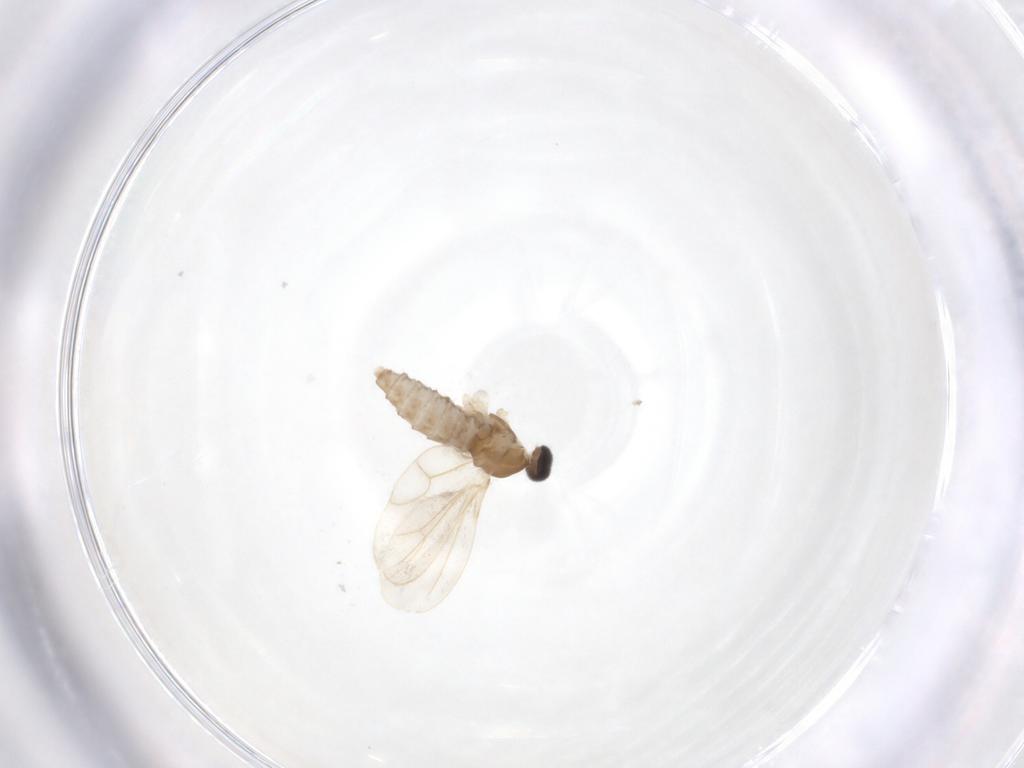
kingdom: Animalia
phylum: Arthropoda
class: Insecta
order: Diptera
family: Cecidomyiidae
